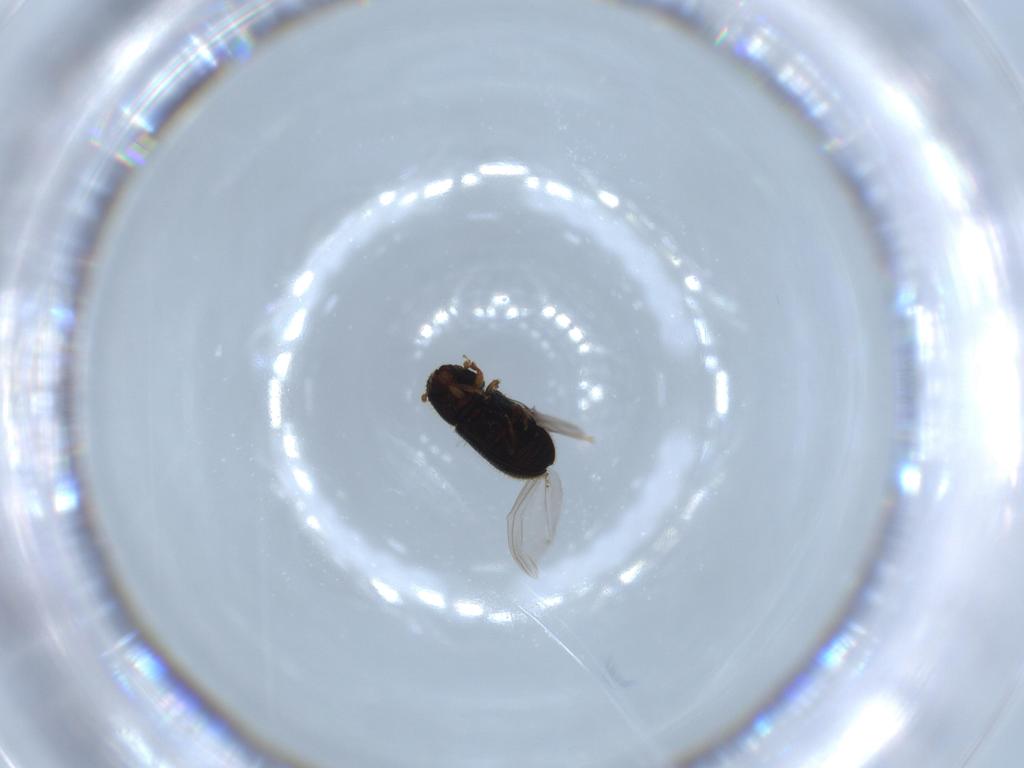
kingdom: Animalia
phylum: Arthropoda
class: Insecta
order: Coleoptera
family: Curculionidae
